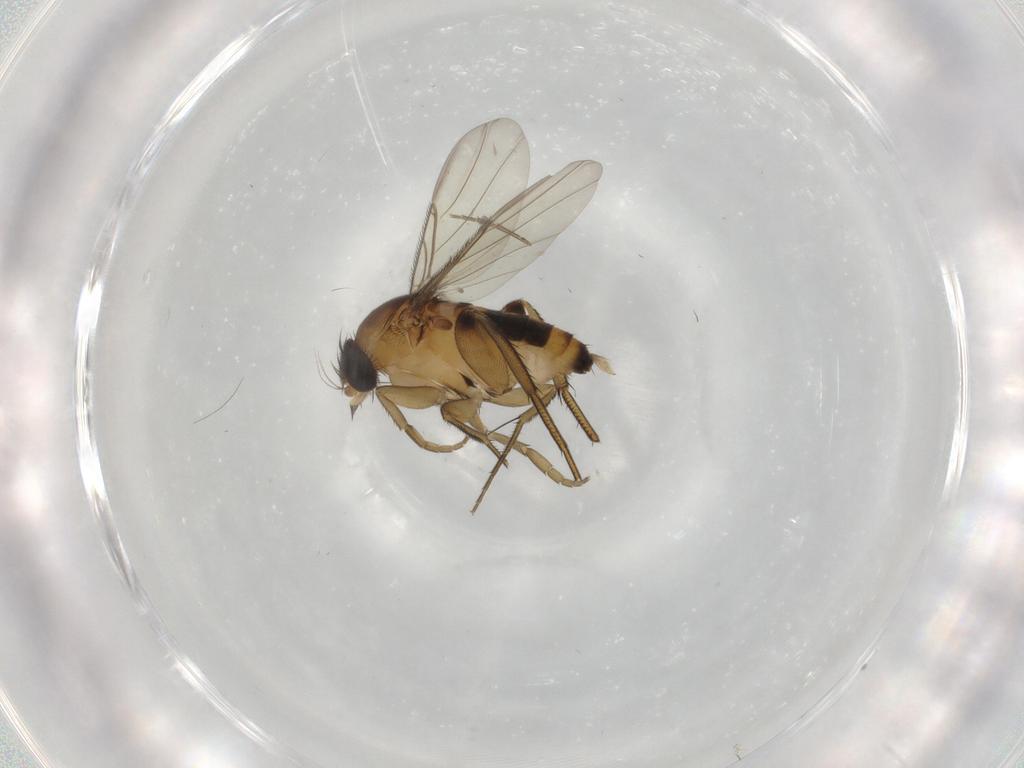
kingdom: Animalia
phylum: Arthropoda
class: Insecta
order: Diptera
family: Phoridae
